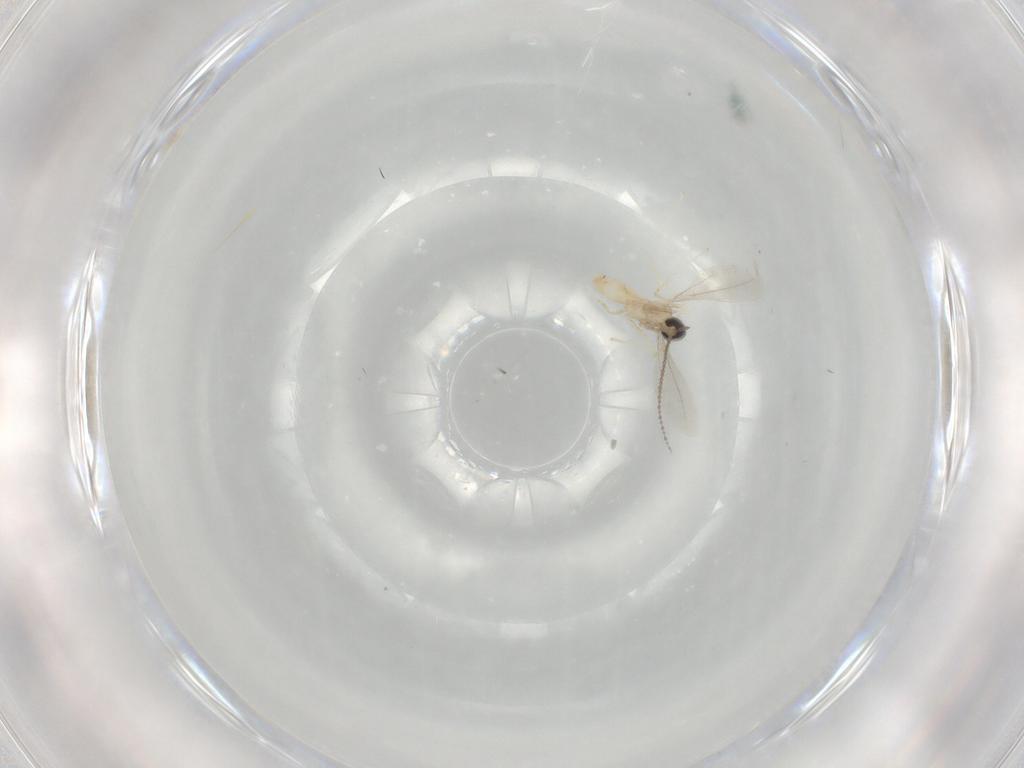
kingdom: Animalia
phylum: Arthropoda
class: Insecta
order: Diptera
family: Cecidomyiidae
